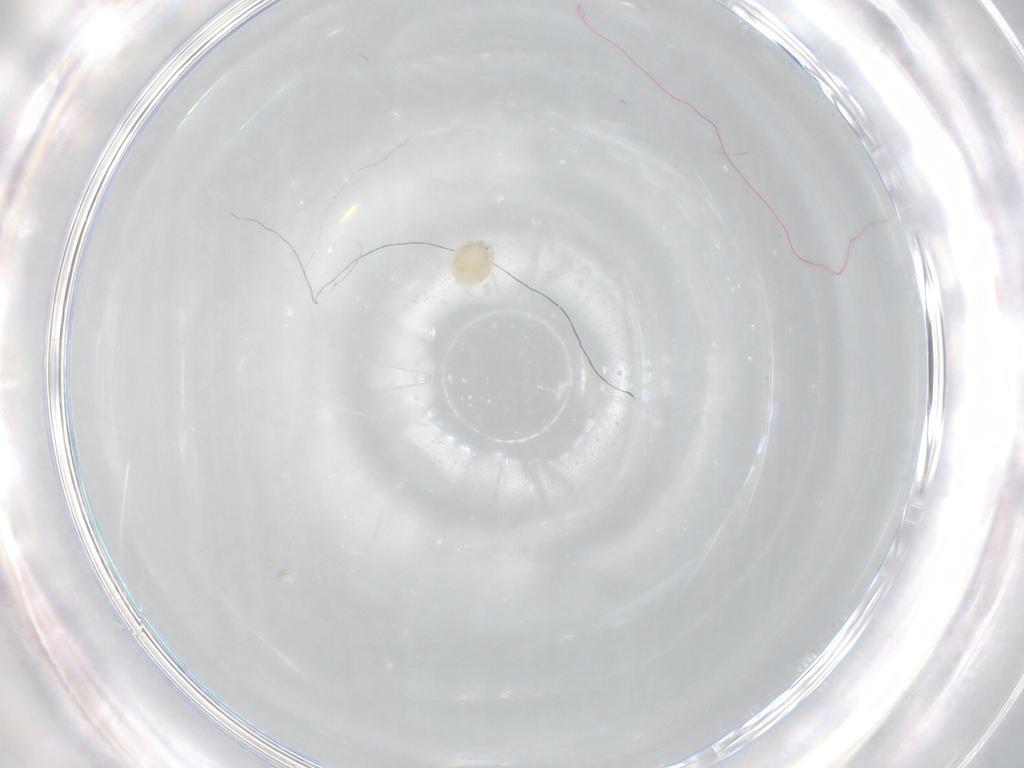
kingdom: Animalia
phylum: Arthropoda
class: Arachnida
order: Trombidiformes
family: Lebertiidae
